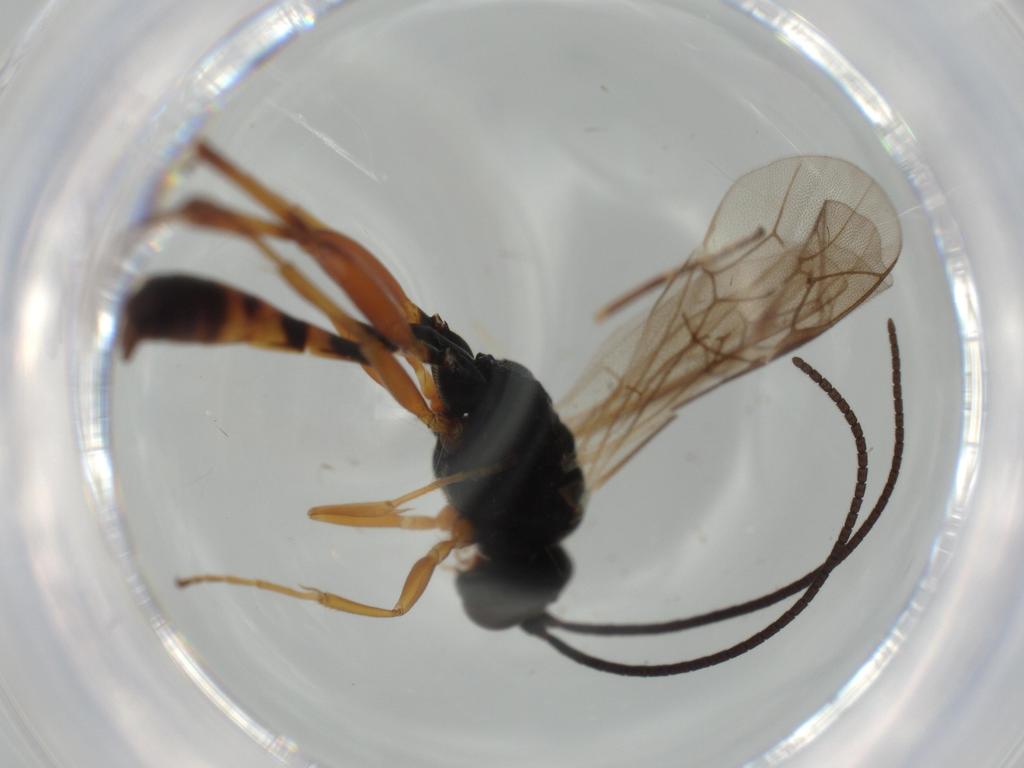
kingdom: Animalia
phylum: Arthropoda
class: Insecta
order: Hymenoptera
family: Ichneumonidae
